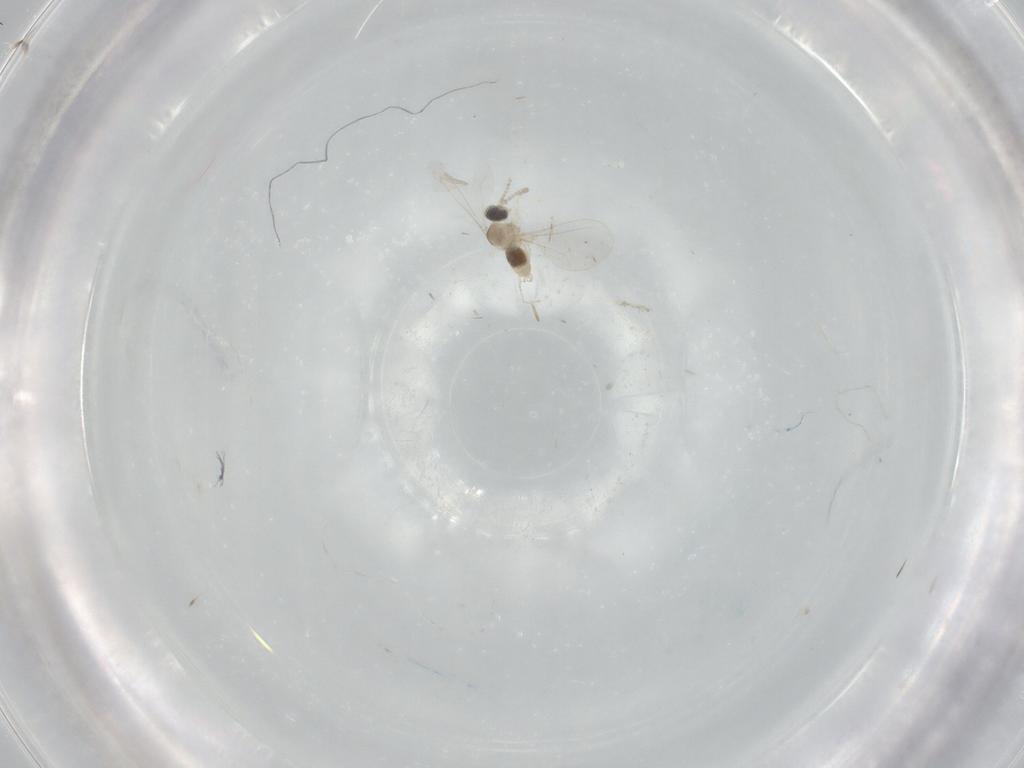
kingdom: Animalia
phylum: Arthropoda
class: Insecta
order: Diptera
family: Cecidomyiidae
